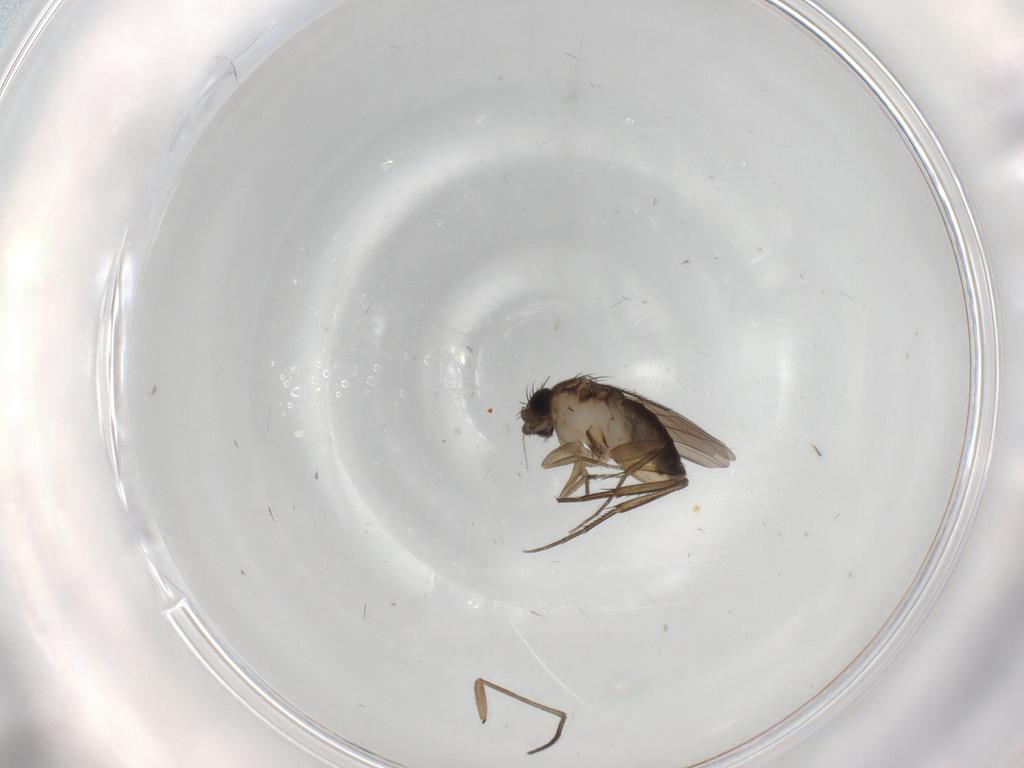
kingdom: Animalia
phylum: Arthropoda
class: Insecta
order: Diptera
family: Phoridae
